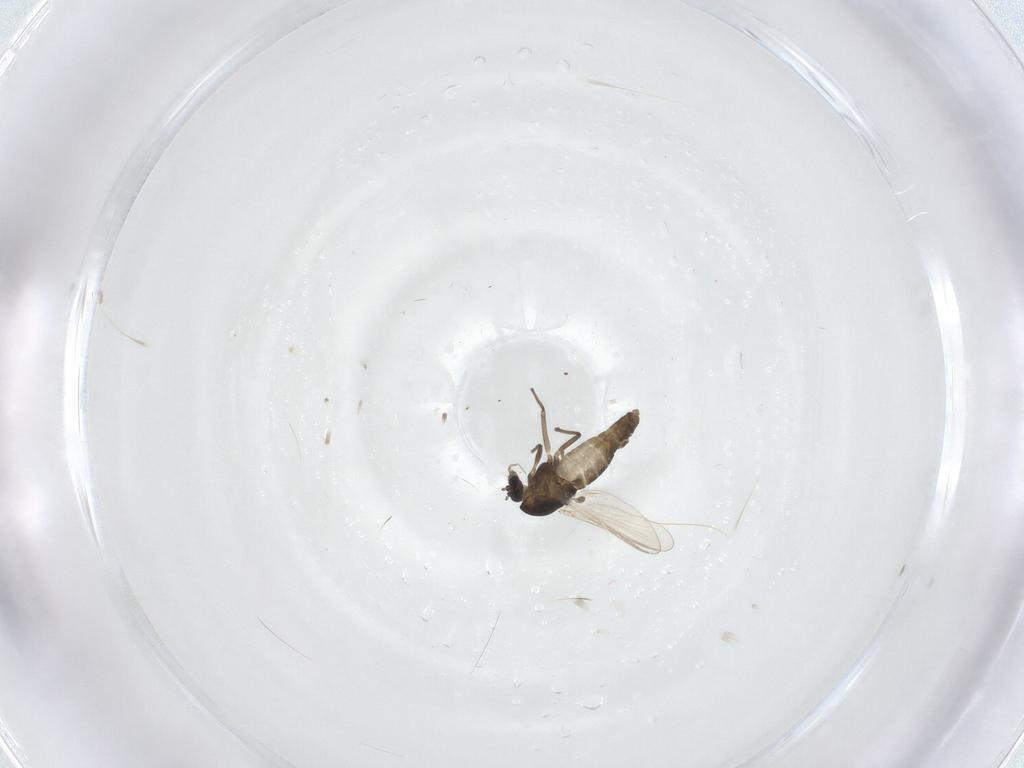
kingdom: Animalia
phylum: Arthropoda
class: Insecta
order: Diptera
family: Chironomidae
